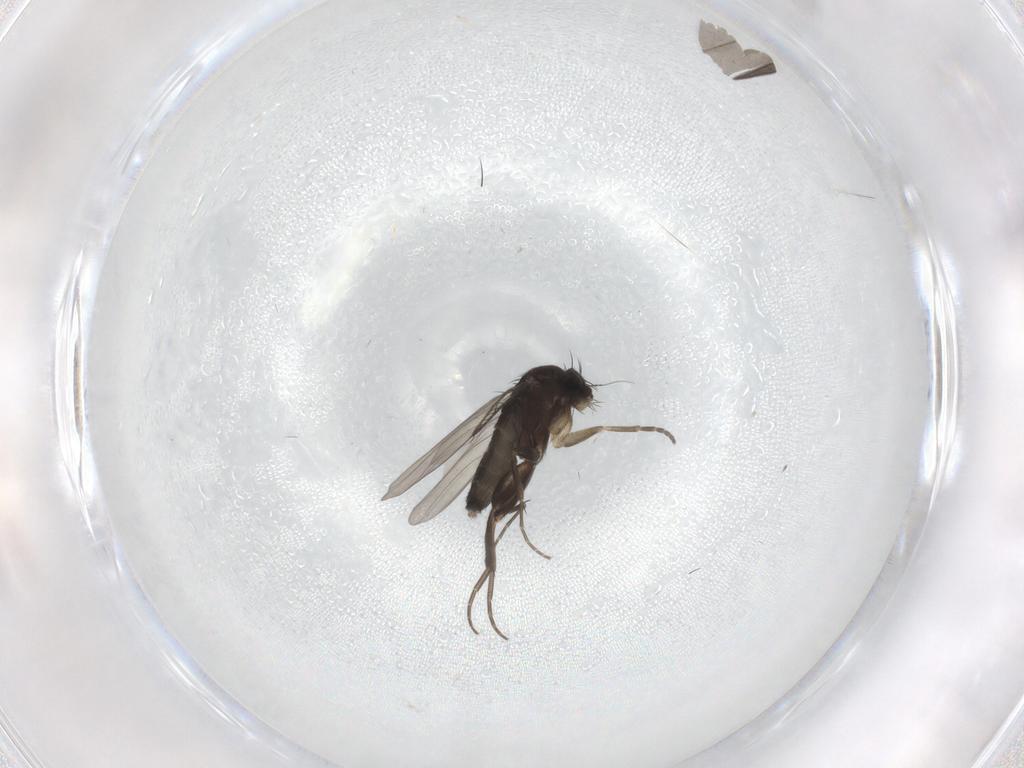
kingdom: Animalia
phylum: Arthropoda
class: Insecta
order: Diptera
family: Phoridae
